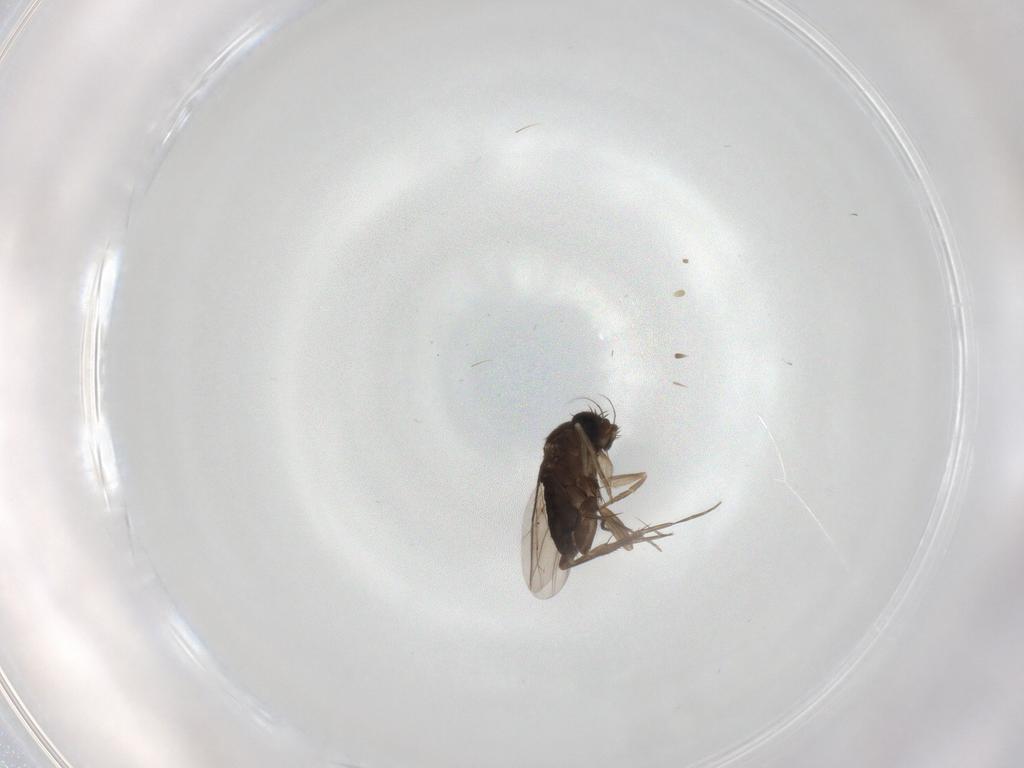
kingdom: Animalia
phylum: Arthropoda
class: Insecta
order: Diptera
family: Phoridae
